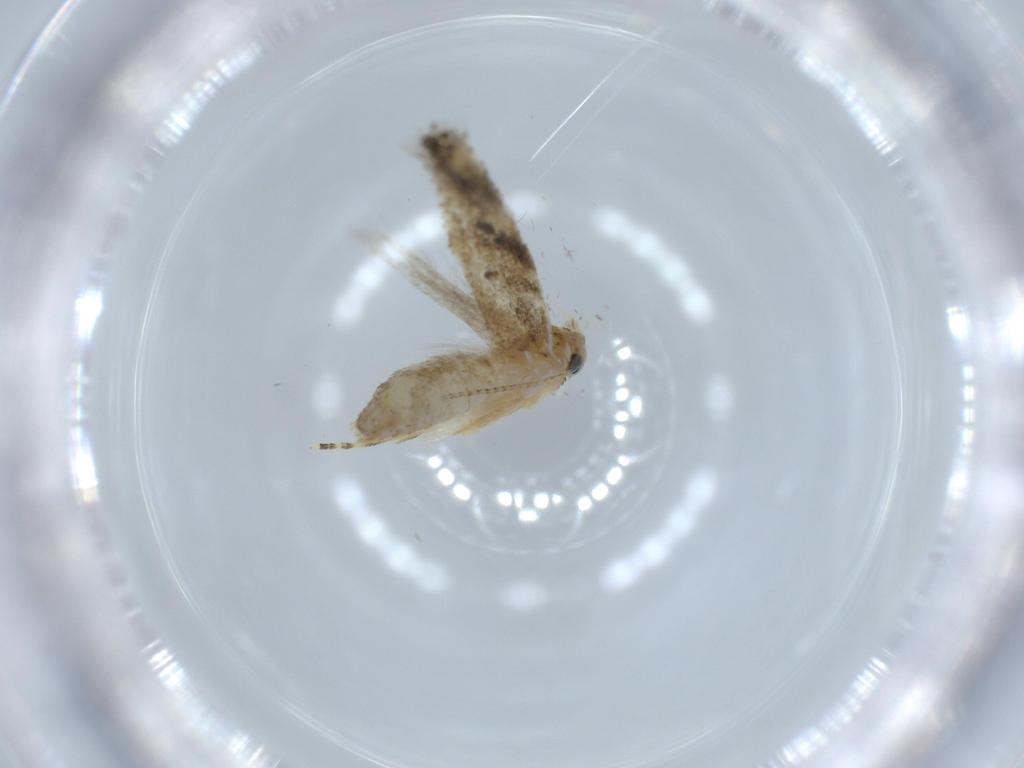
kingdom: Animalia
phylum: Arthropoda
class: Insecta
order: Lepidoptera
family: Bucculatricidae
